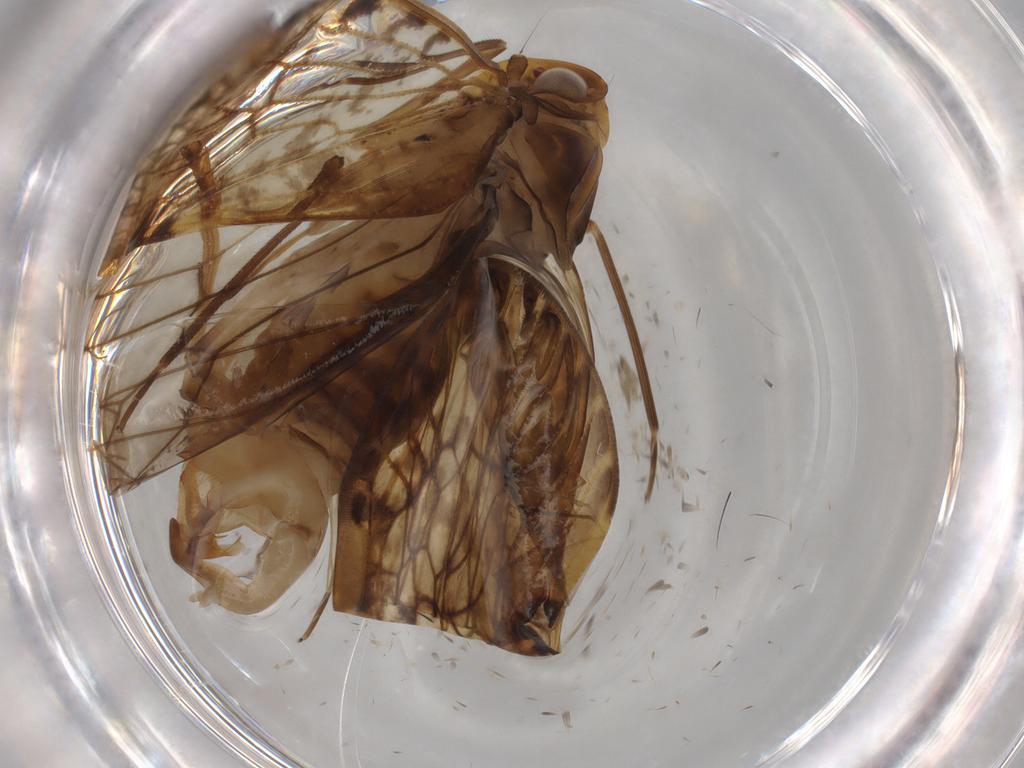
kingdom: Animalia
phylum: Arthropoda
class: Insecta
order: Hemiptera
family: Cixiidae
